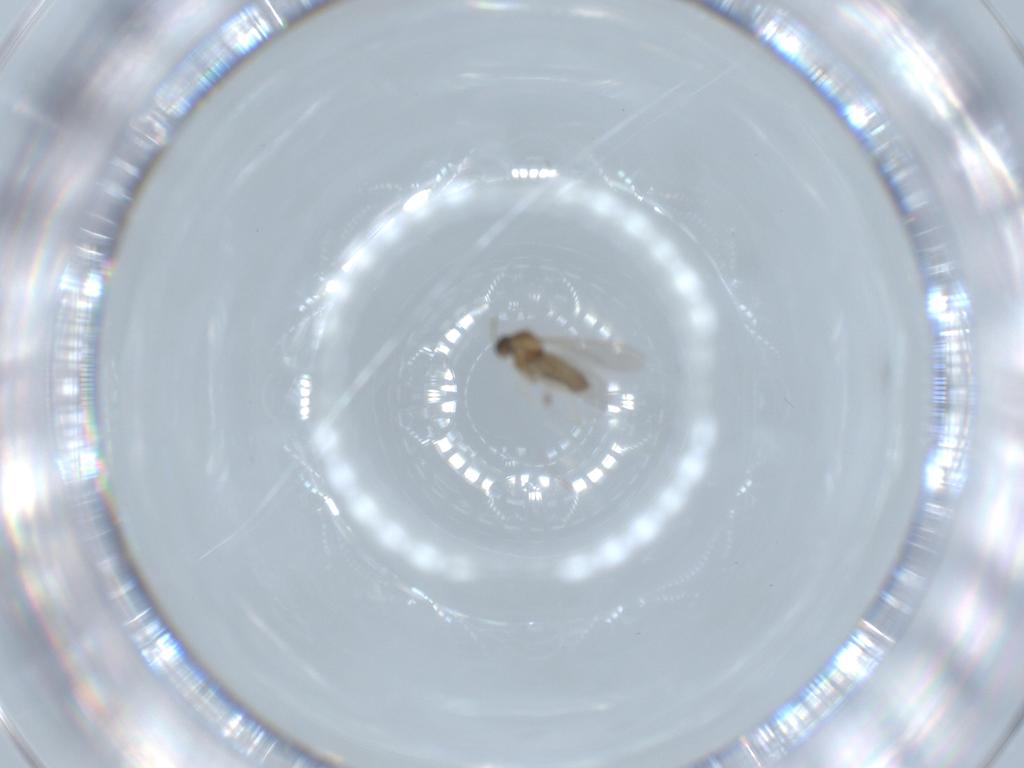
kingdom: Animalia
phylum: Arthropoda
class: Insecta
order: Diptera
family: Cecidomyiidae
